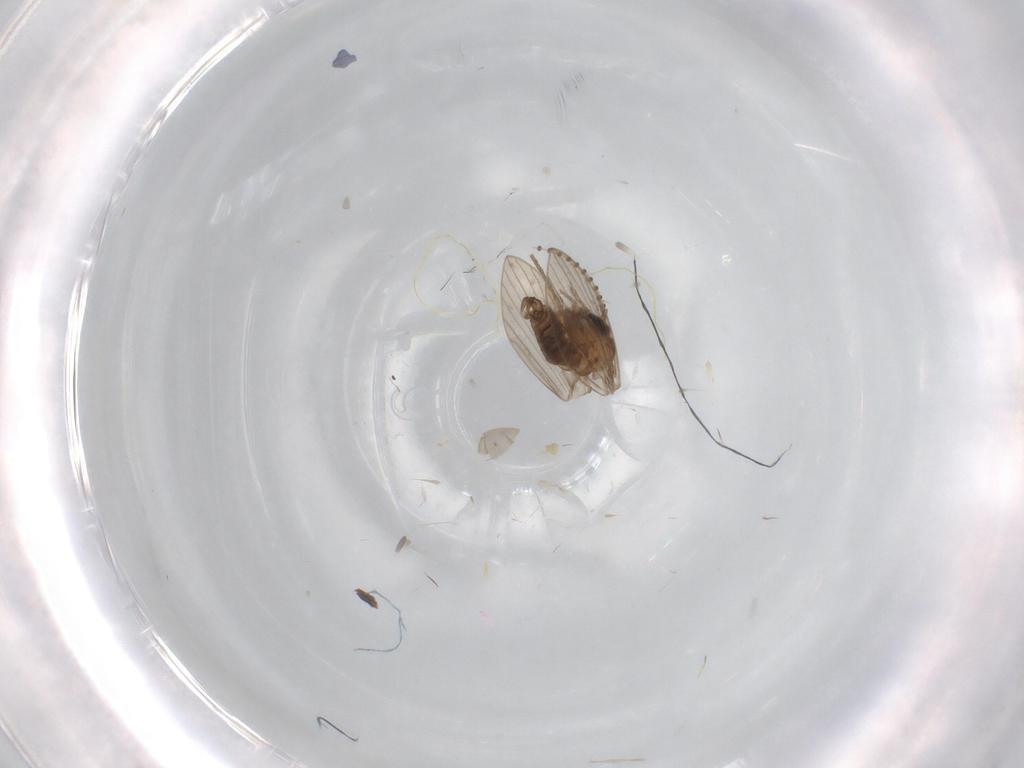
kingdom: Animalia
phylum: Arthropoda
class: Insecta
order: Diptera
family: Psychodidae
